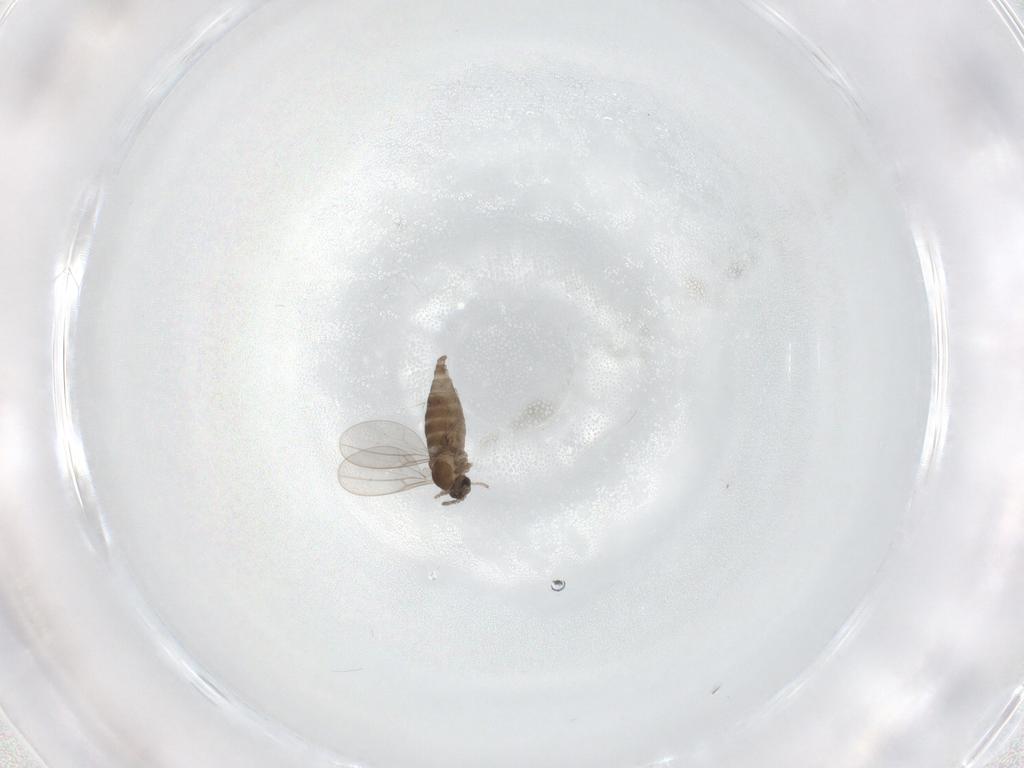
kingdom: Animalia
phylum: Arthropoda
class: Insecta
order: Diptera
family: Cecidomyiidae
